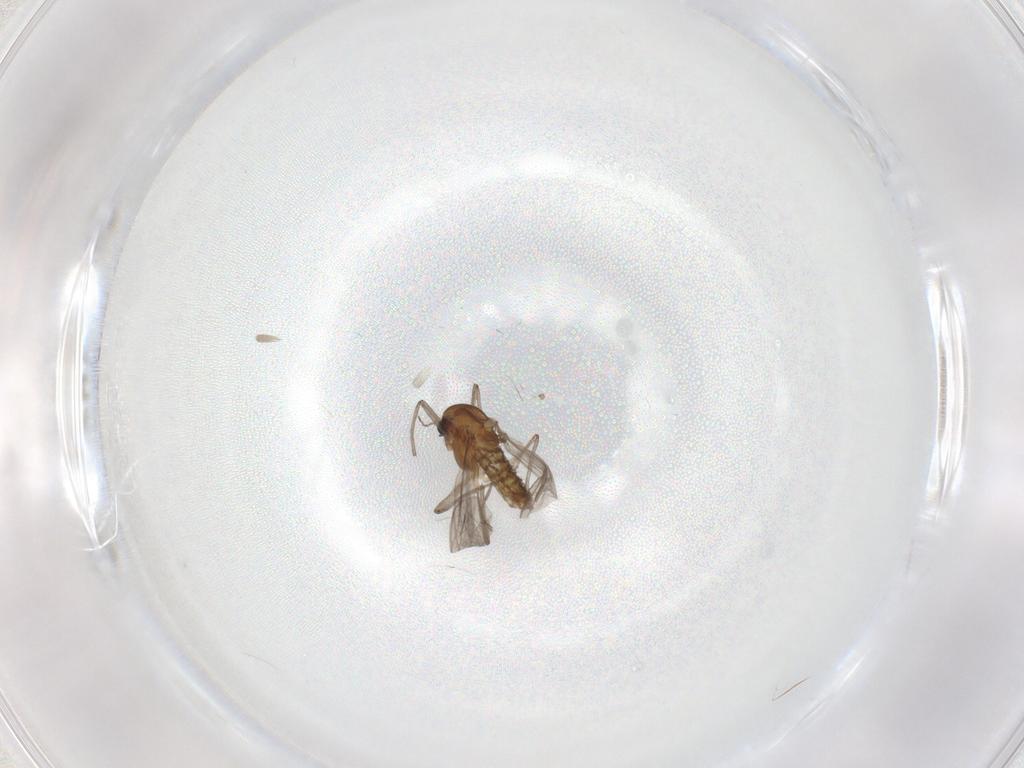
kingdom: Animalia
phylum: Arthropoda
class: Insecta
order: Diptera
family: Chironomidae
